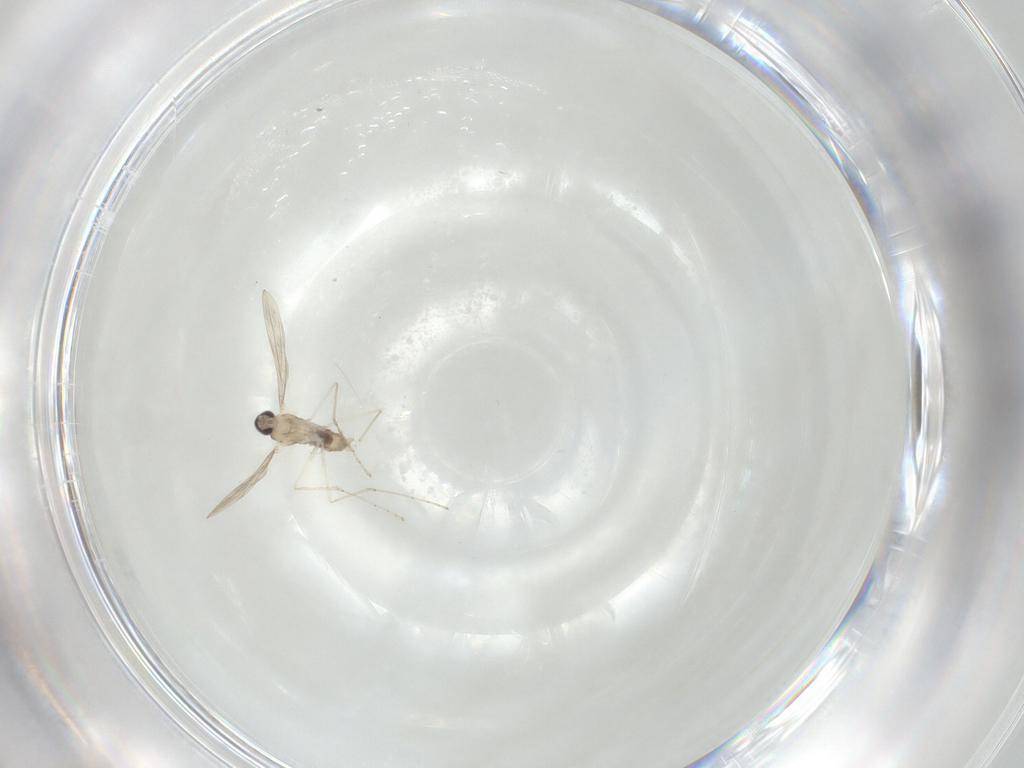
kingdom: Animalia
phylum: Arthropoda
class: Insecta
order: Diptera
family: Cecidomyiidae
